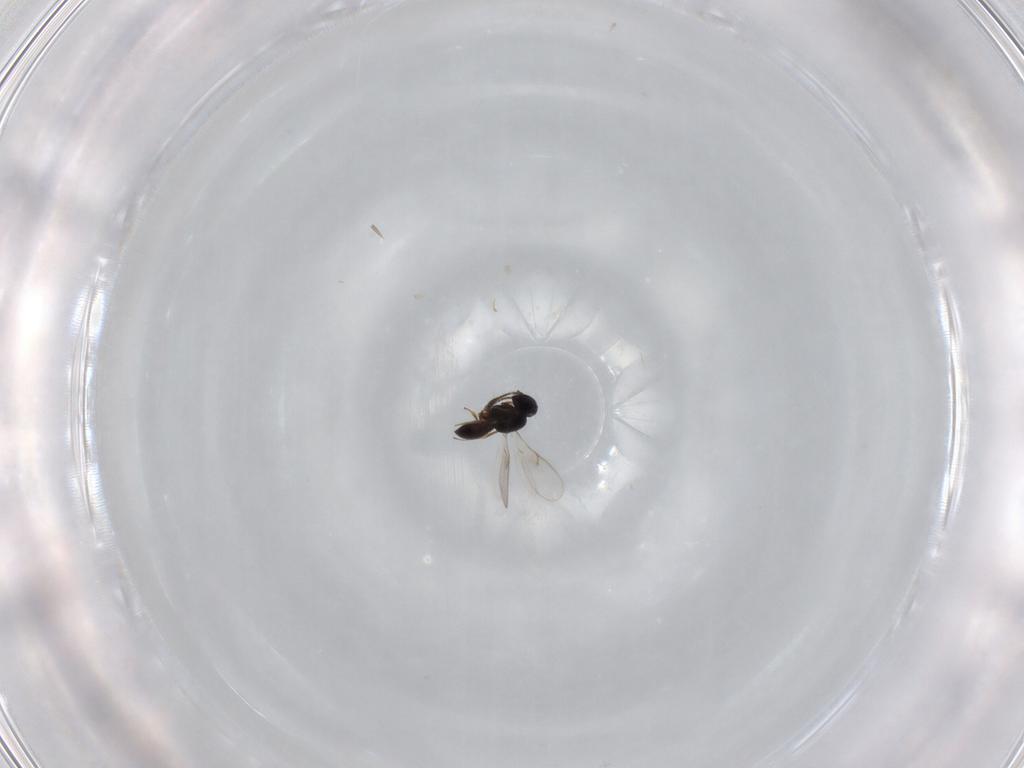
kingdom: Animalia
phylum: Arthropoda
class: Insecta
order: Hymenoptera
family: Scelionidae
